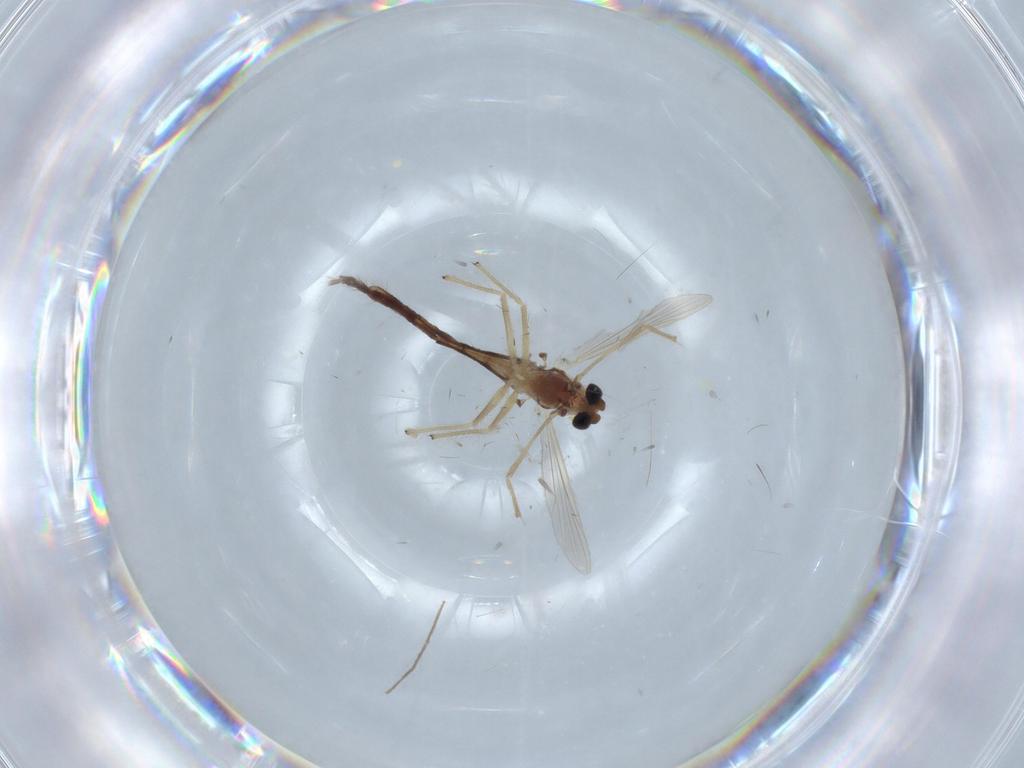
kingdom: Animalia
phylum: Arthropoda
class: Insecta
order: Diptera
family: Chironomidae
